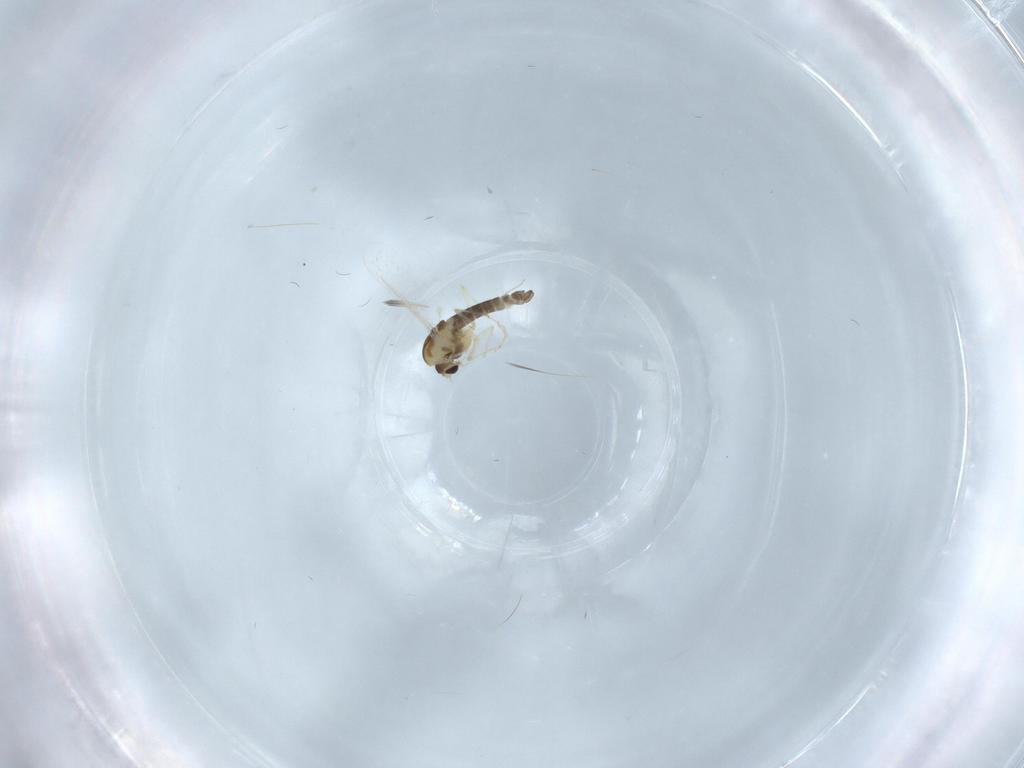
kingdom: Animalia
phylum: Arthropoda
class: Insecta
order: Diptera
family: Chironomidae
